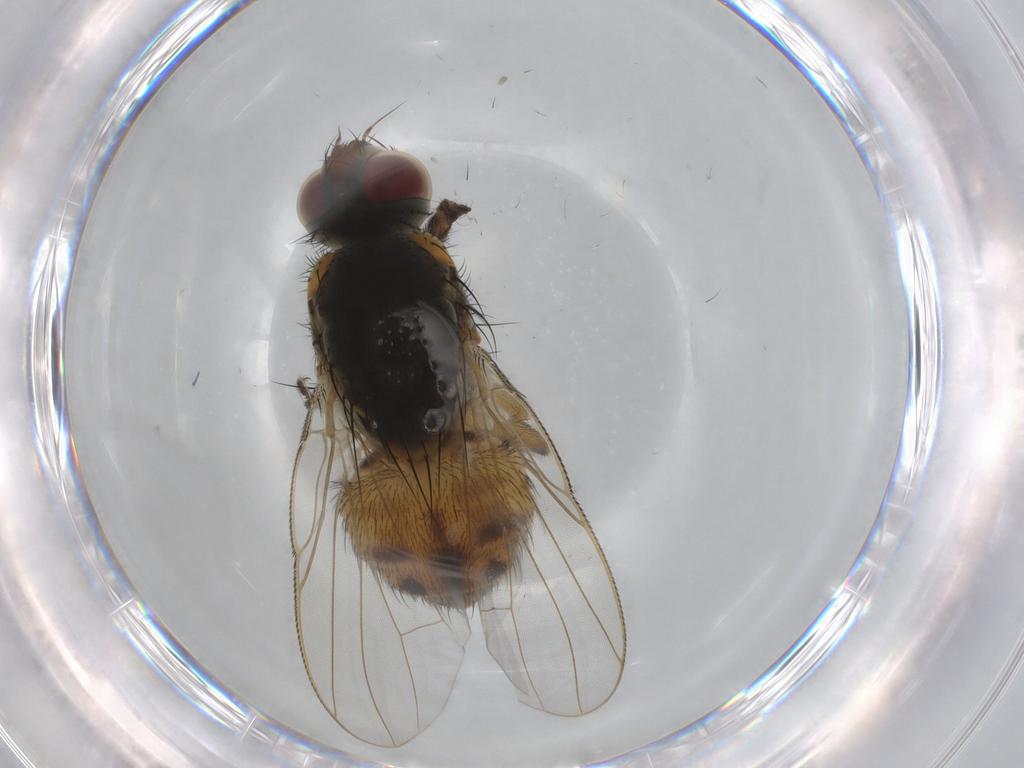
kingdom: Animalia
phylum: Arthropoda
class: Insecta
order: Diptera
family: Muscidae
